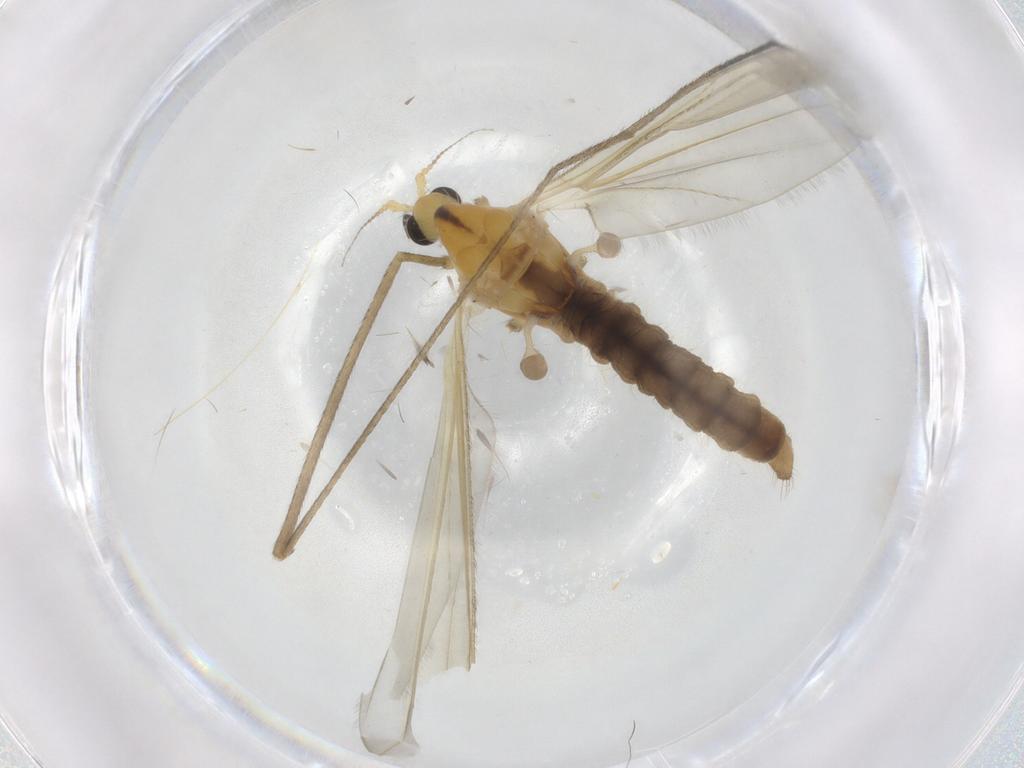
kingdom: Animalia
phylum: Arthropoda
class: Insecta
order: Diptera
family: Limoniidae
